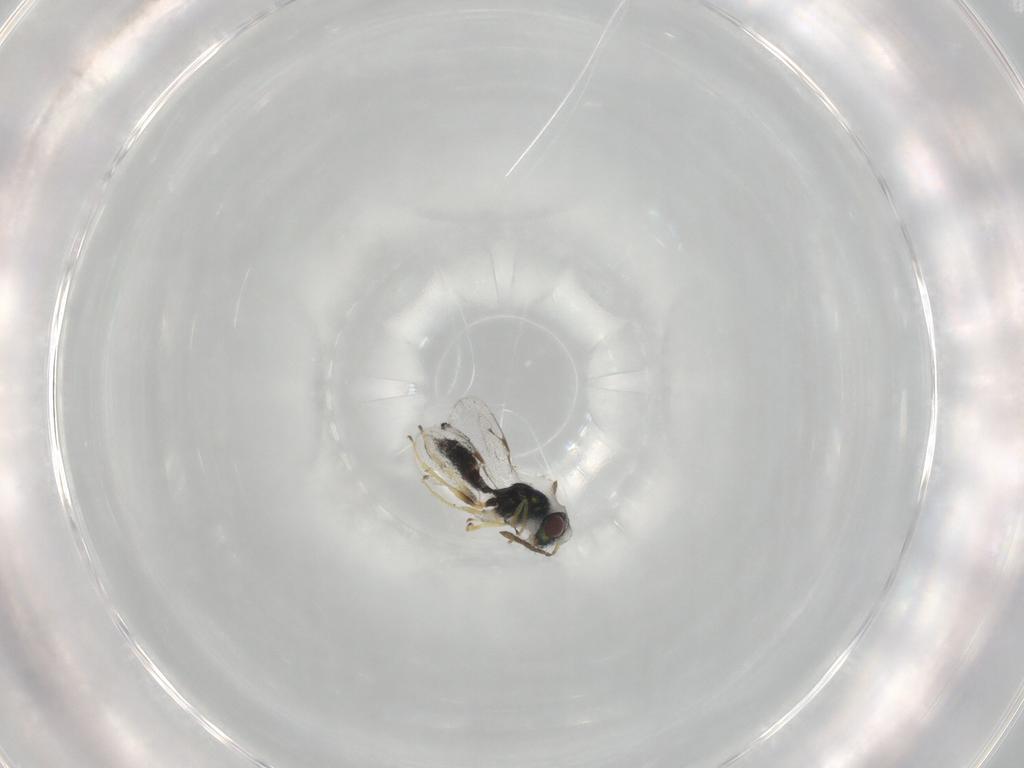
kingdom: Animalia
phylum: Arthropoda
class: Insecta
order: Hymenoptera
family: Pteromalidae
